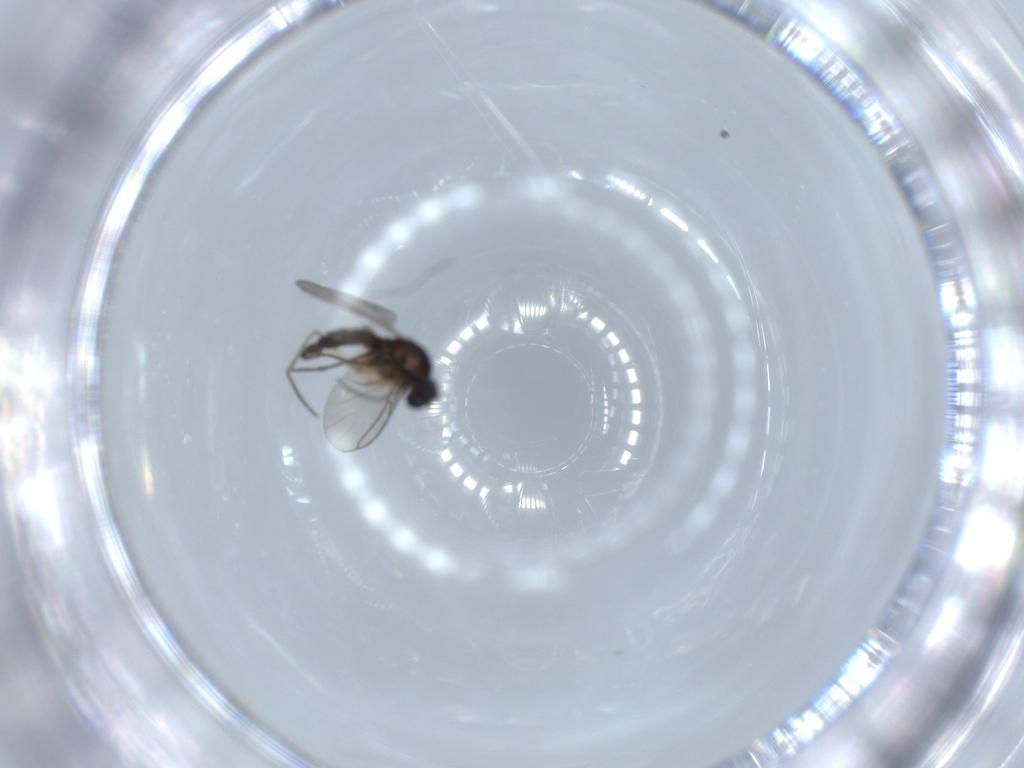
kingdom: Animalia
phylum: Arthropoda
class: Insecta
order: Diptera
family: Sciaridae
